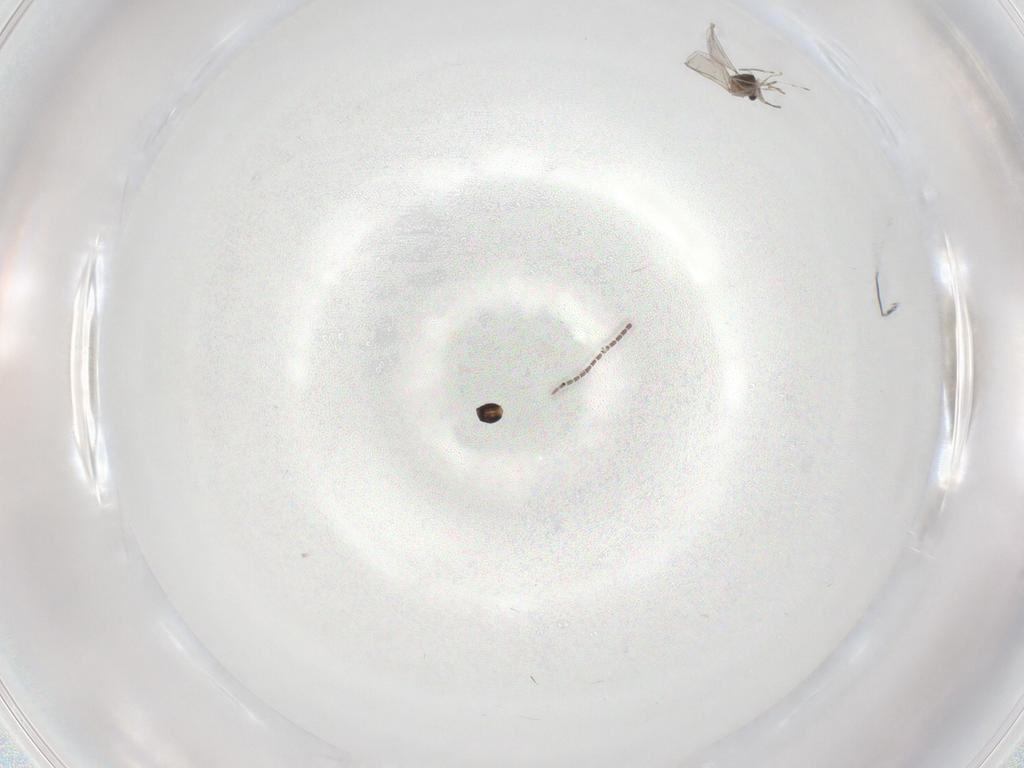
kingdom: Animalia
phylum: Arthropoda
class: Insecta
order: Diptera
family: Cecidomyiidae
